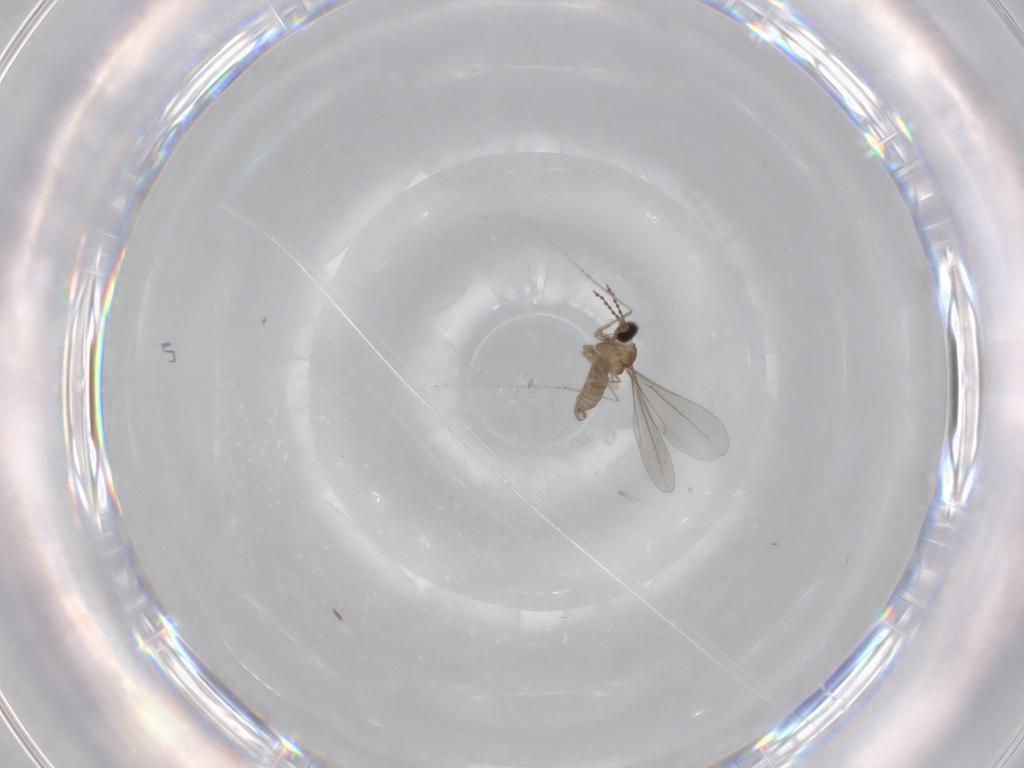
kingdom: Animalia
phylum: Arthropoda
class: Insecta
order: Diptera
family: Cecidomyiidae
